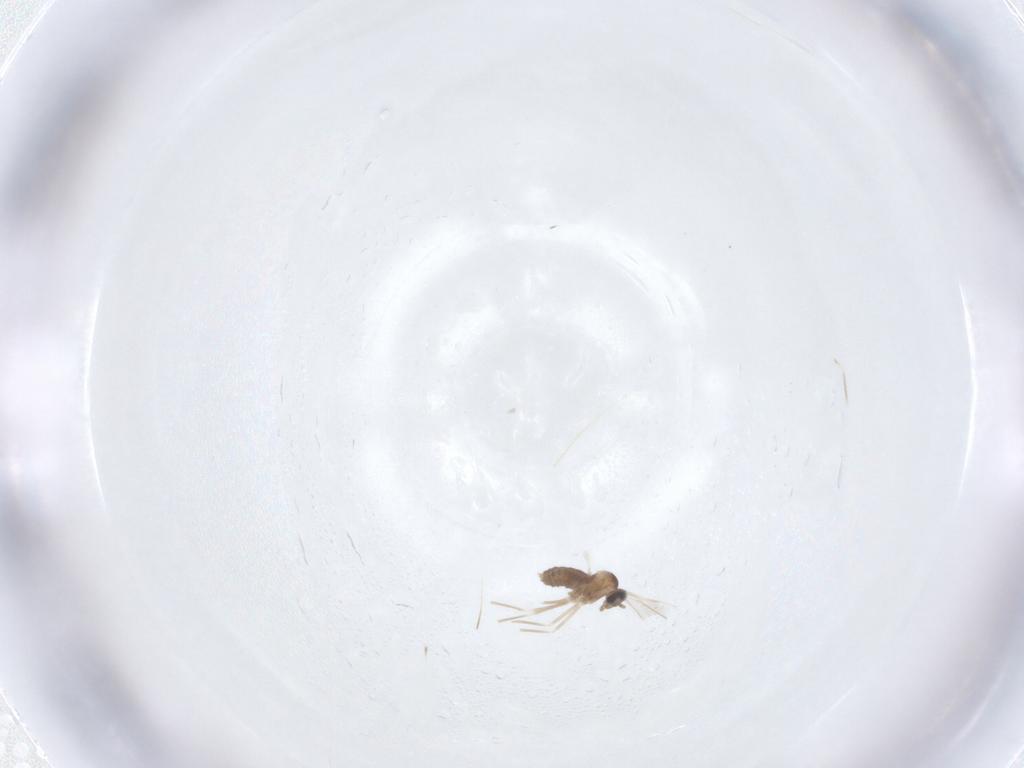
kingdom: Animalia
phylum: Arthropoda
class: Insecta
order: Diptera
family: Cecidomyiidae
